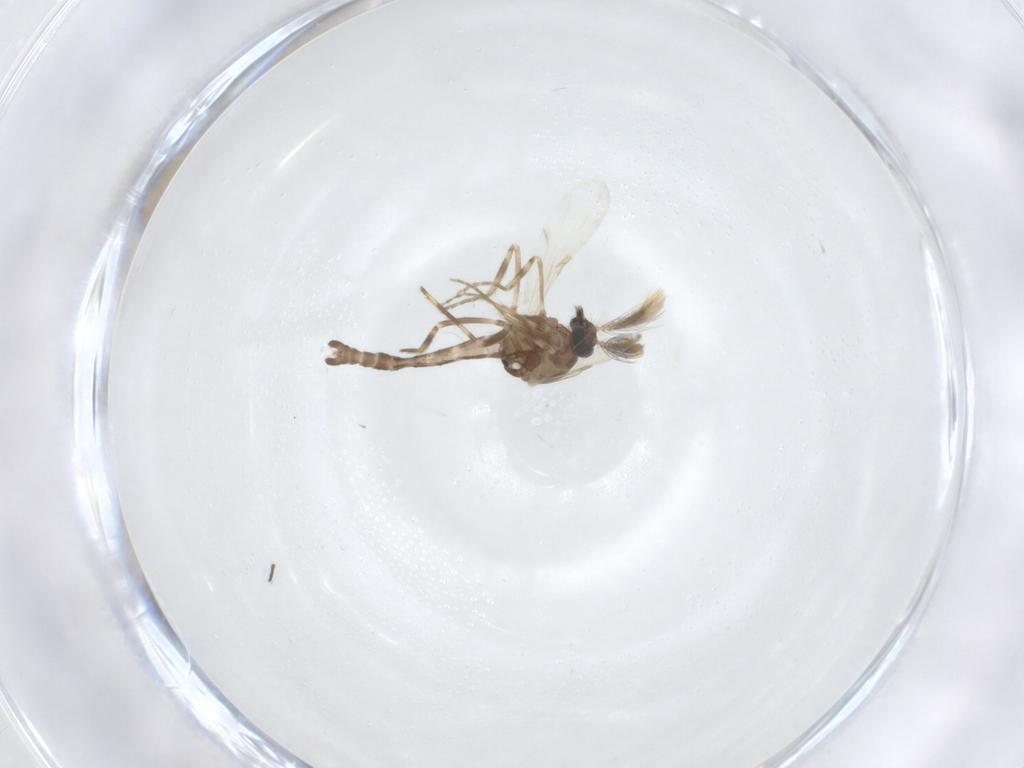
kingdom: Animalia
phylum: Arthropoda
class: Insecta
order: Diptera
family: Ceratopogonidae
